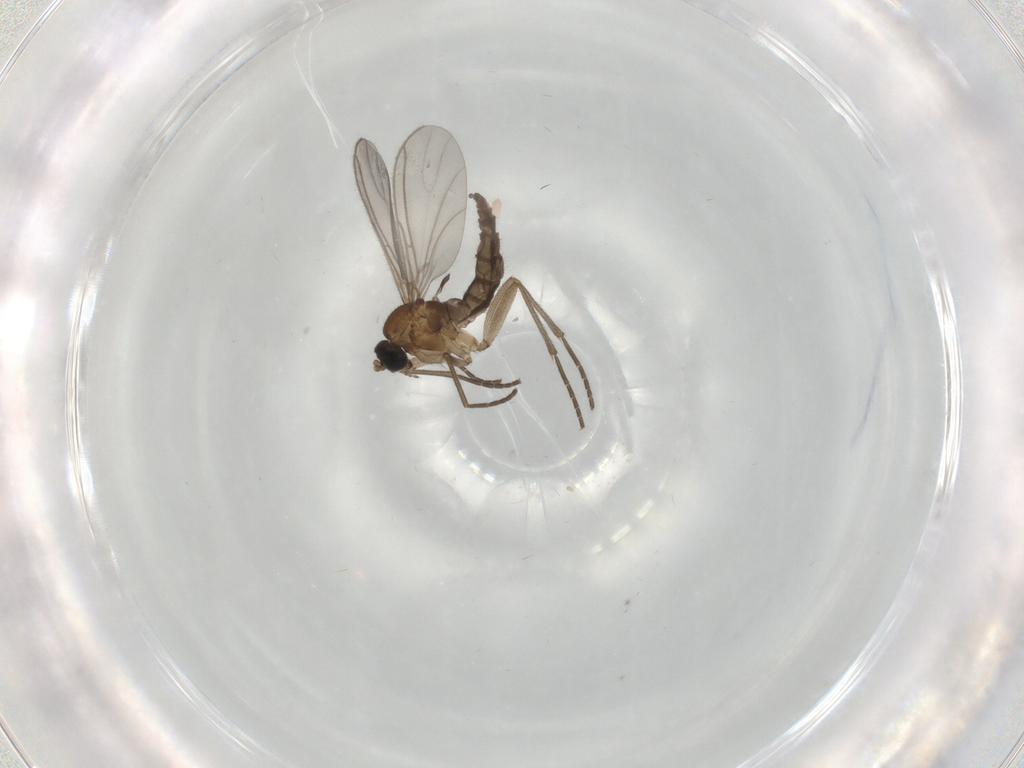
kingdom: Animalia
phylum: Arthropoda
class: Insecta
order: Diptera
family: Sciaridae
